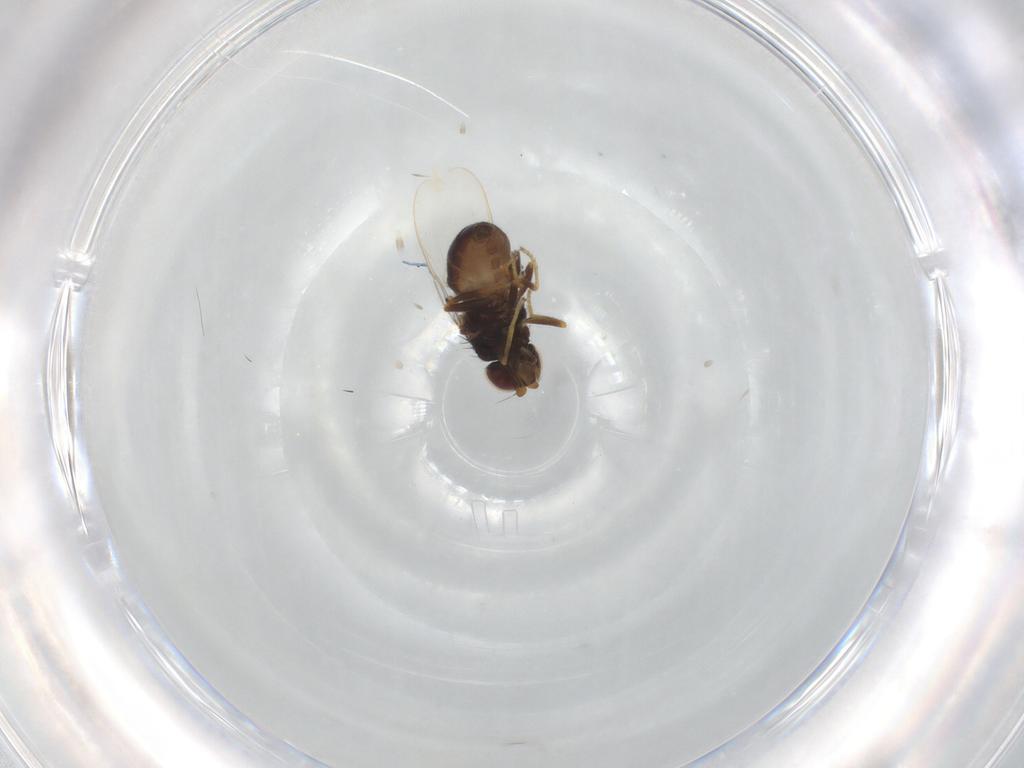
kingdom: Animalia
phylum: Arthropoda
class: Insecta
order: Diptera
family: Chloropidae
